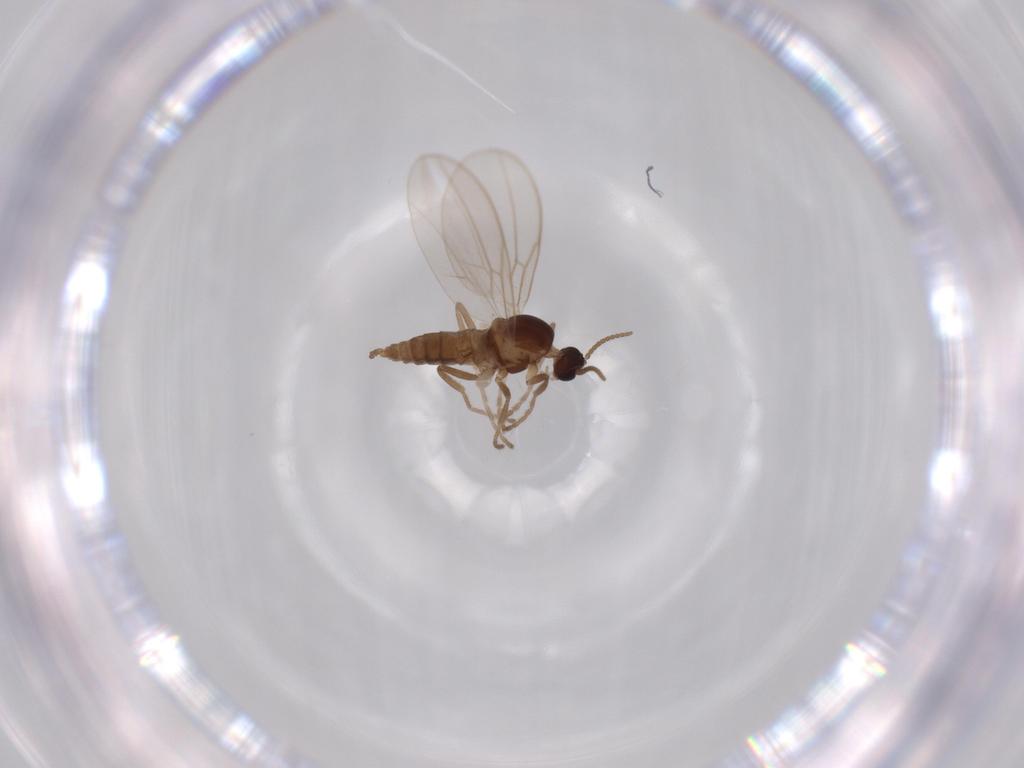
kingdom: Animalia
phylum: Arthropoda
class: Insecta
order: Diptera
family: Cecidomyiidae
